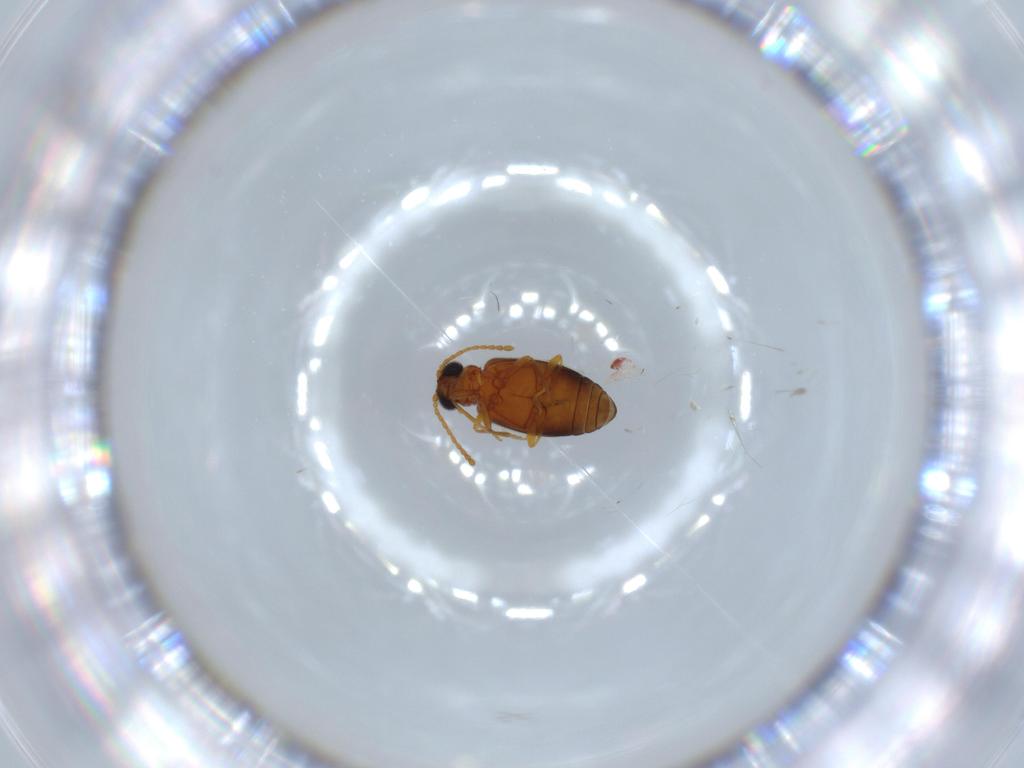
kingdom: Animalia
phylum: Arthropoda
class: Insecta
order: Coleoptera
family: Aderidae
